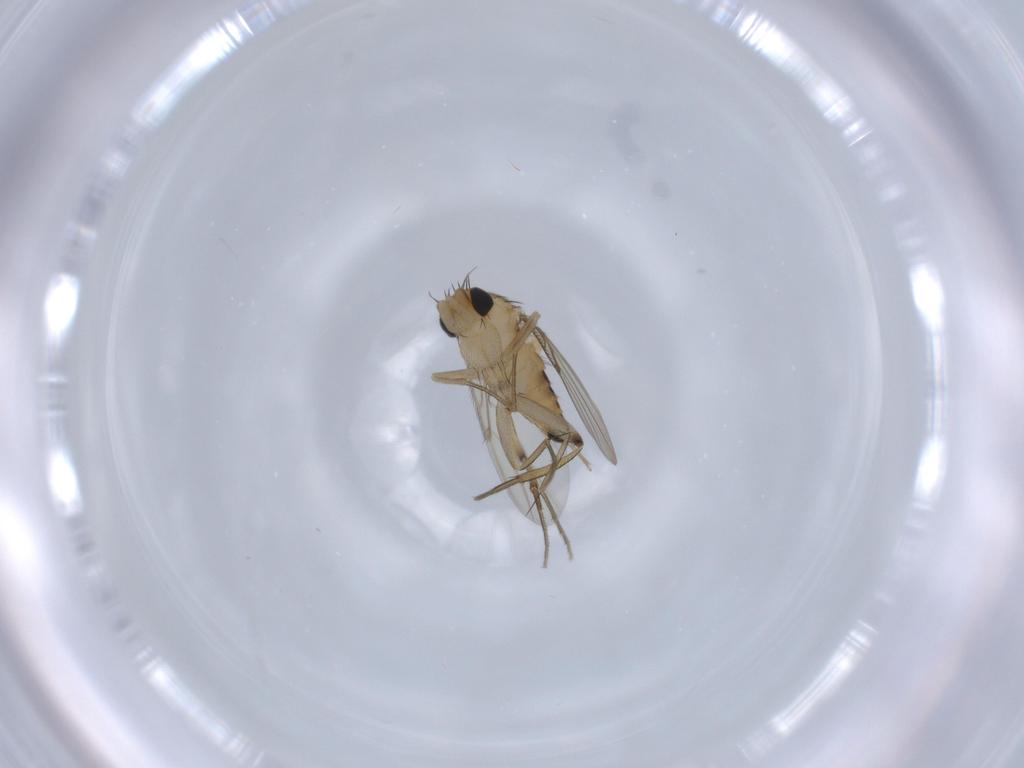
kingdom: Animalia
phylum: Arthropoda
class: Insecta
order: Diptera
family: Phoridae
